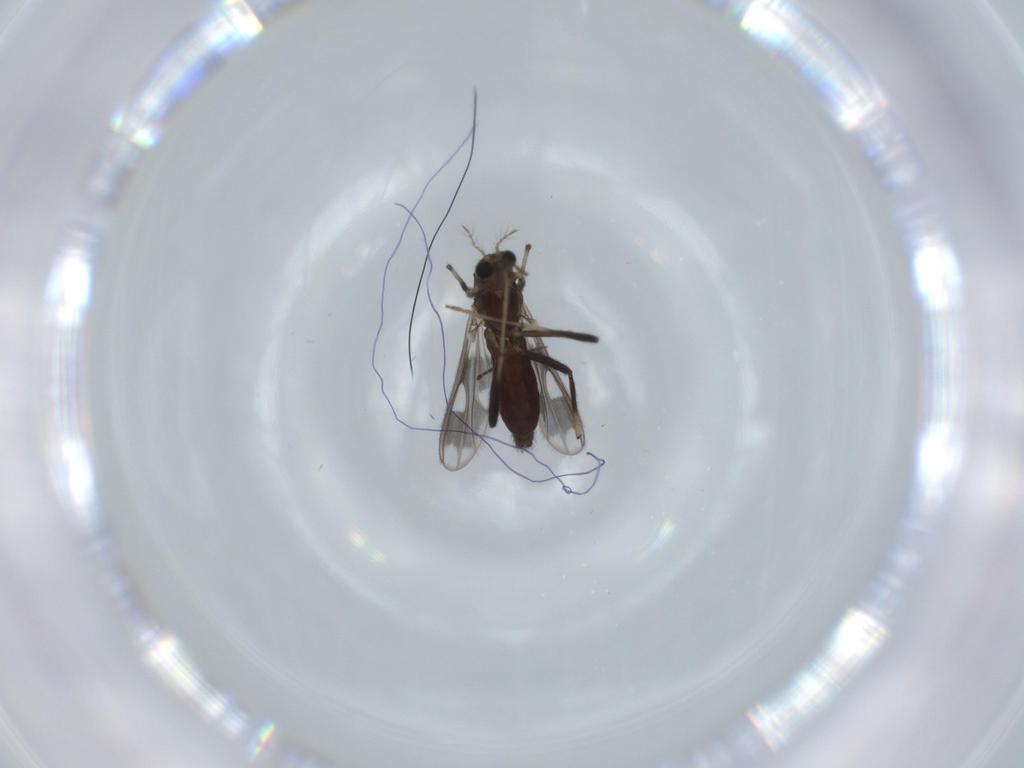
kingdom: Animalia
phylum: Arthropoda
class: Insecta
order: Diptera
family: Chironomidae
